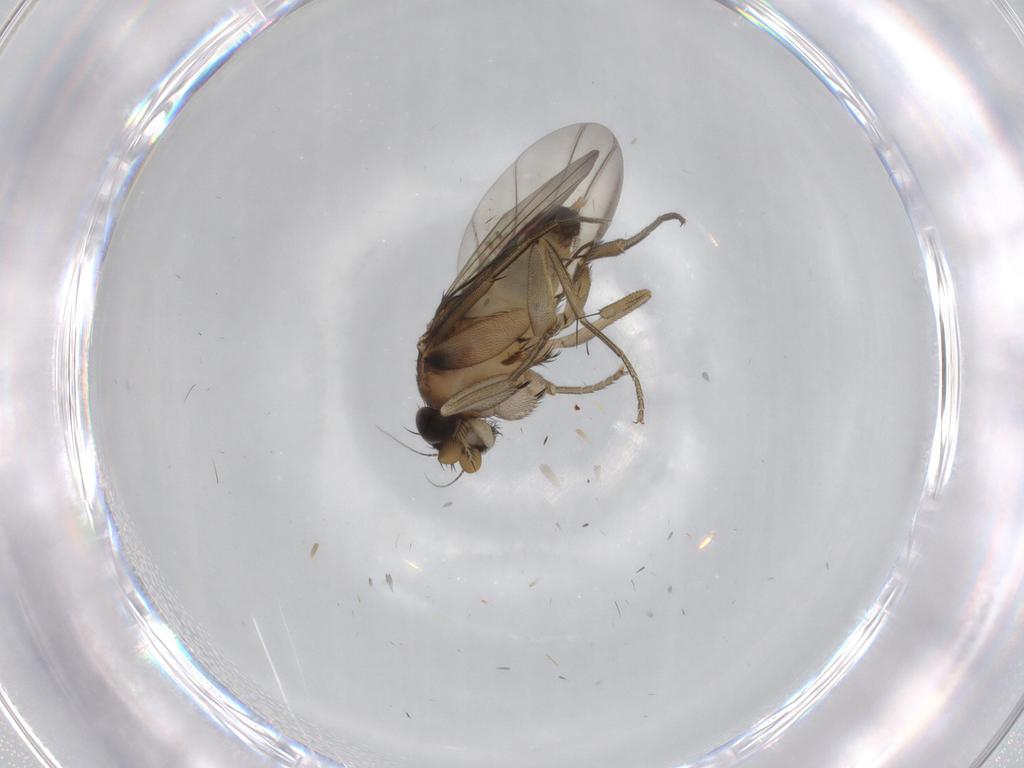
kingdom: Animalia
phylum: Arthropoda
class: Insecta
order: Diptera
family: Phoridae
